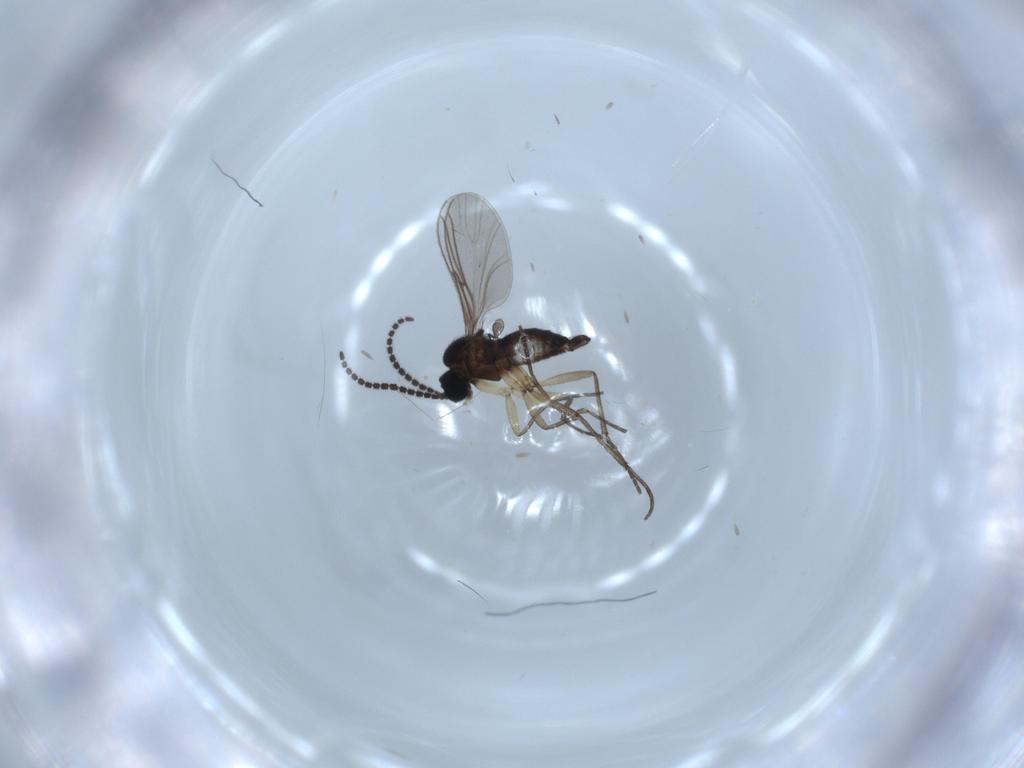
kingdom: Animalia
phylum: Arthropoda
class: Insecta
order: Diptera
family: Sciaridae
